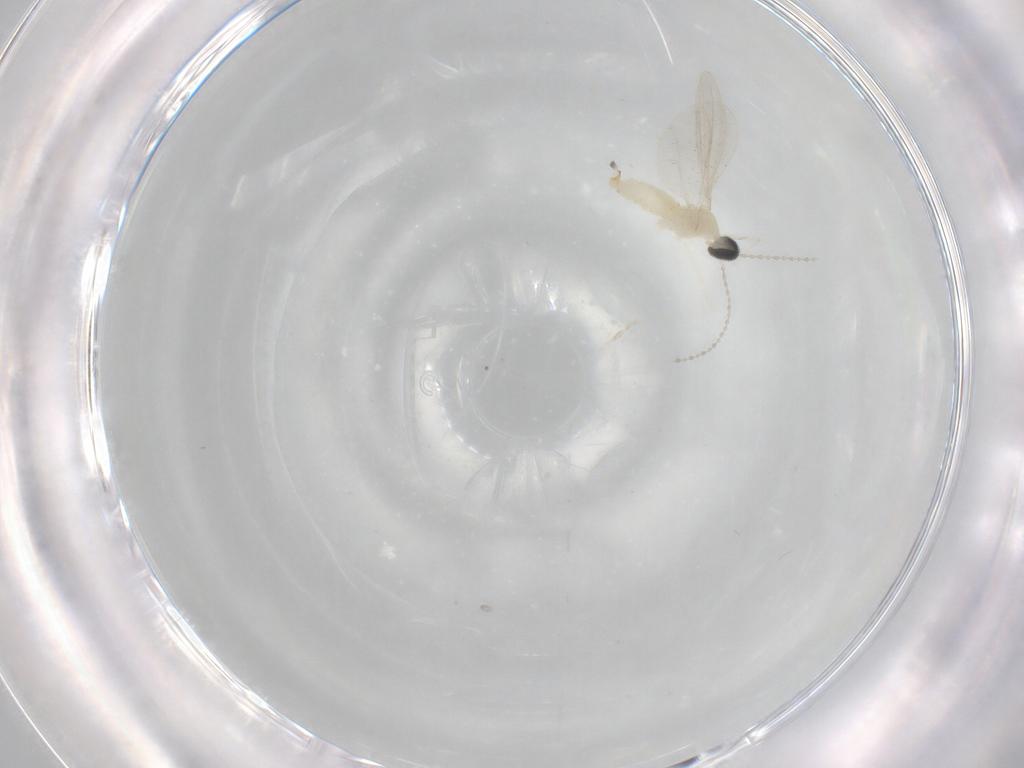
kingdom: Animalia
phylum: Arthropoda
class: Insecta
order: Diptera
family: Cecidomyiidae
